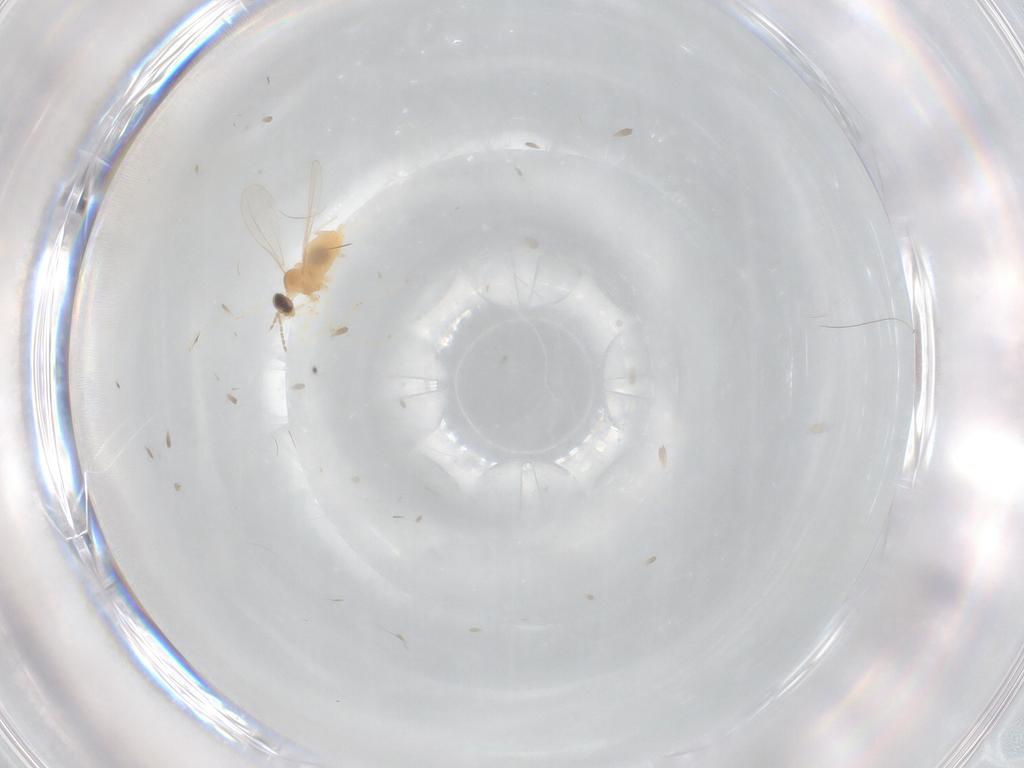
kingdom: Animalia
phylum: Arthropoda
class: Insecta
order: Diptera
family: Cecidomyiidae
